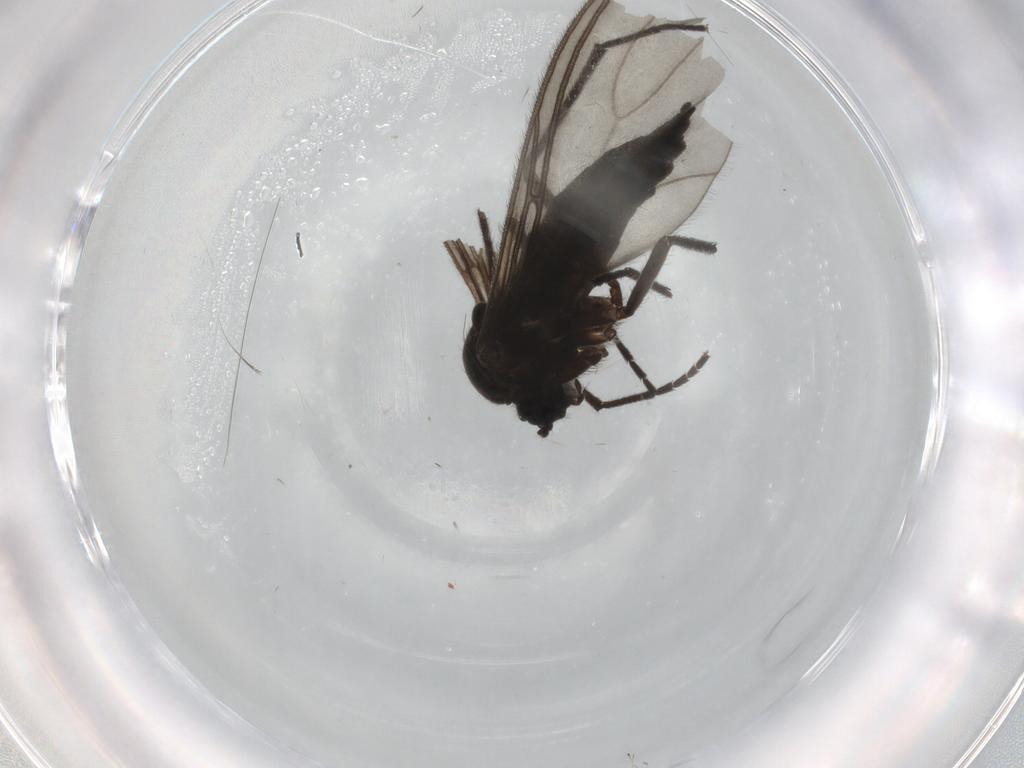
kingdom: Animalia
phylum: Arthropoda
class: Insecta
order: Diptera
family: Sciaridae
